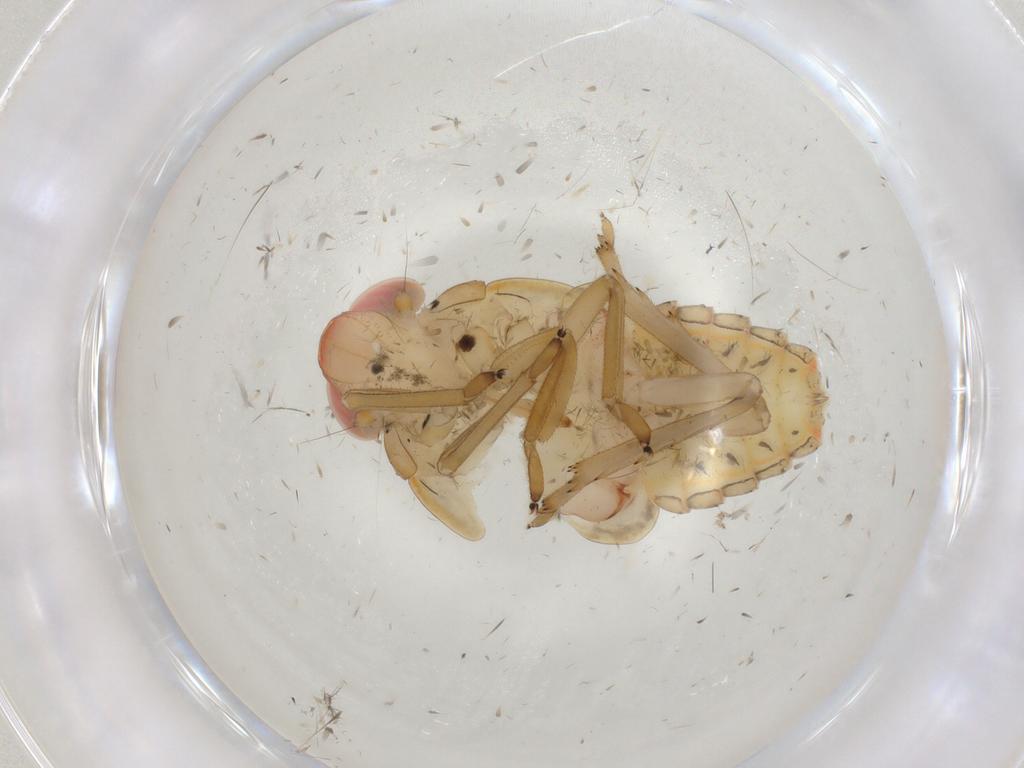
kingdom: Animalia
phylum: Arthropoda
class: Insecta
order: Hemiptera
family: Issidae
